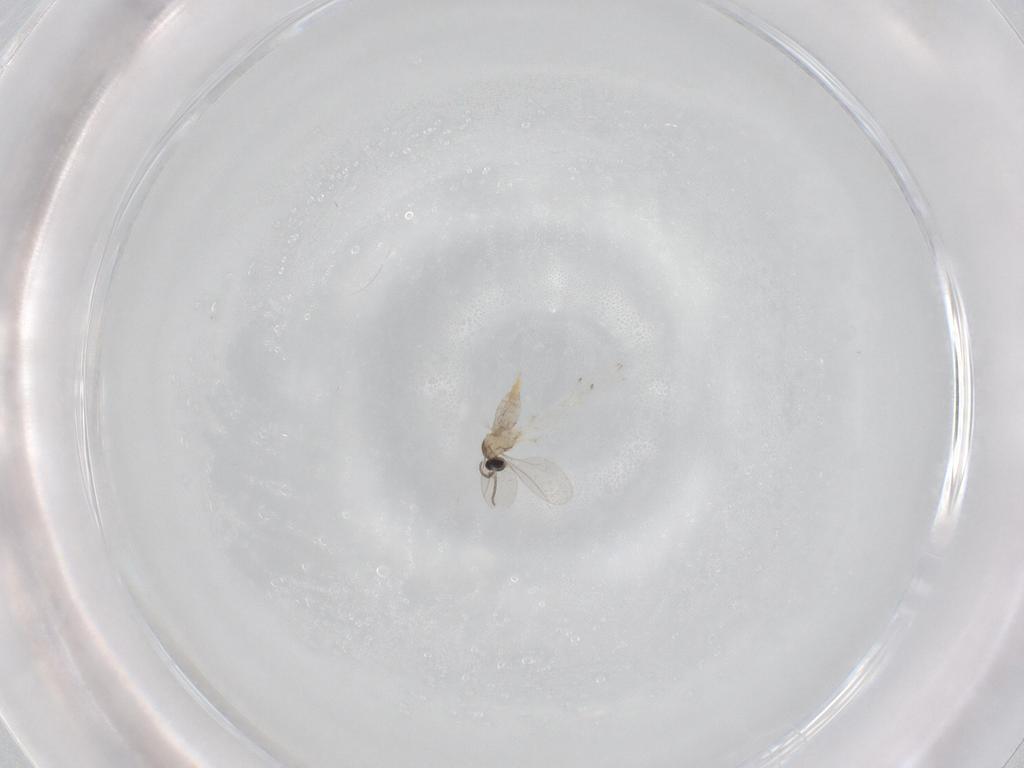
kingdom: Animalia
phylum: Arthropoda
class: Insecta
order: Diptera
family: Cecidomyiidae
